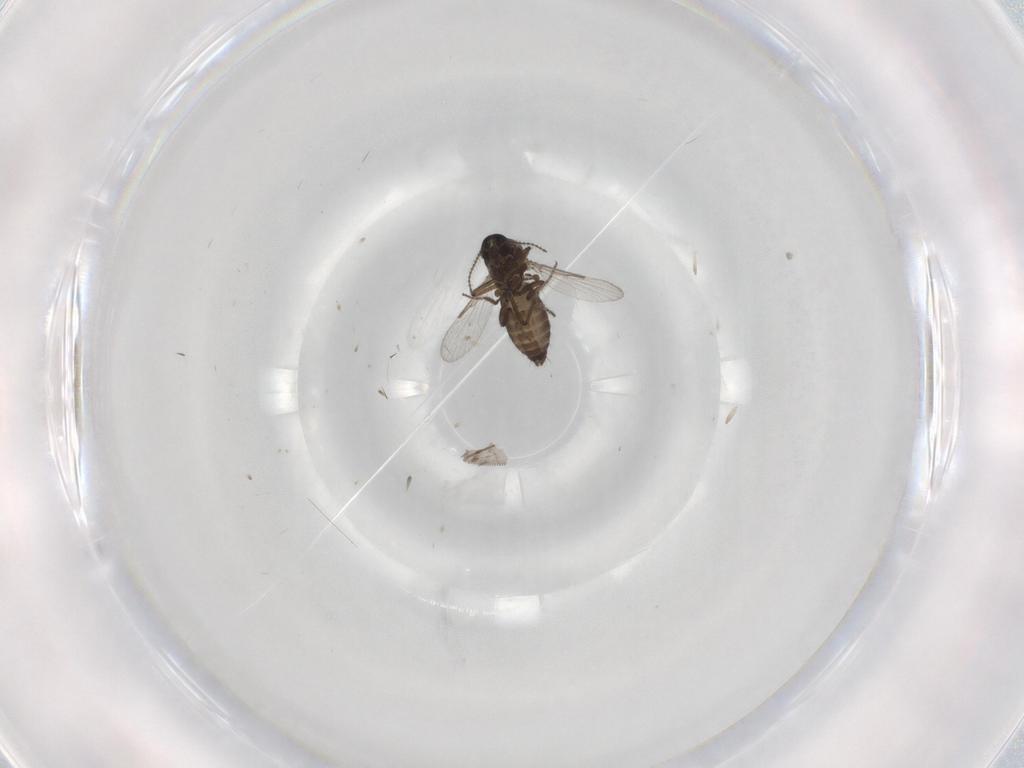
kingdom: Animalia
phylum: Arthropoda
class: Insecta
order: Diptera
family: Ceratopogonidae
